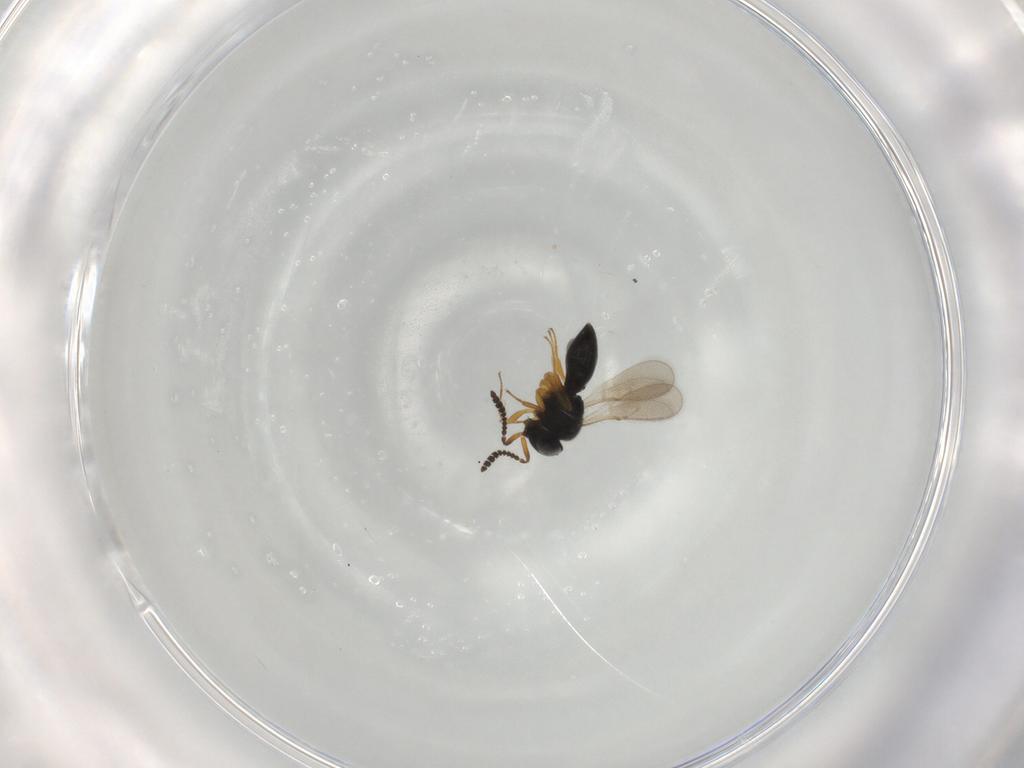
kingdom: Animalia
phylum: Arthropoda
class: Insecta
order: Hymenoptera
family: Scelionidae
